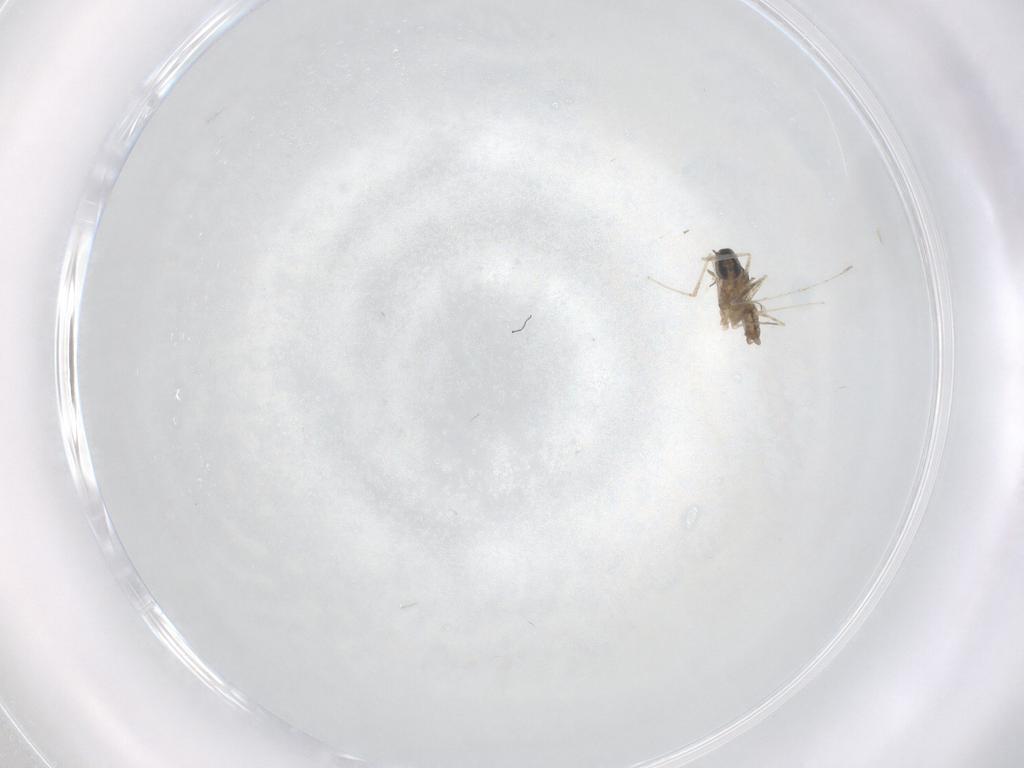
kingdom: Animalia
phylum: Arthropoda
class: Insecta
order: Diptera
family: Cecidomyiidae
